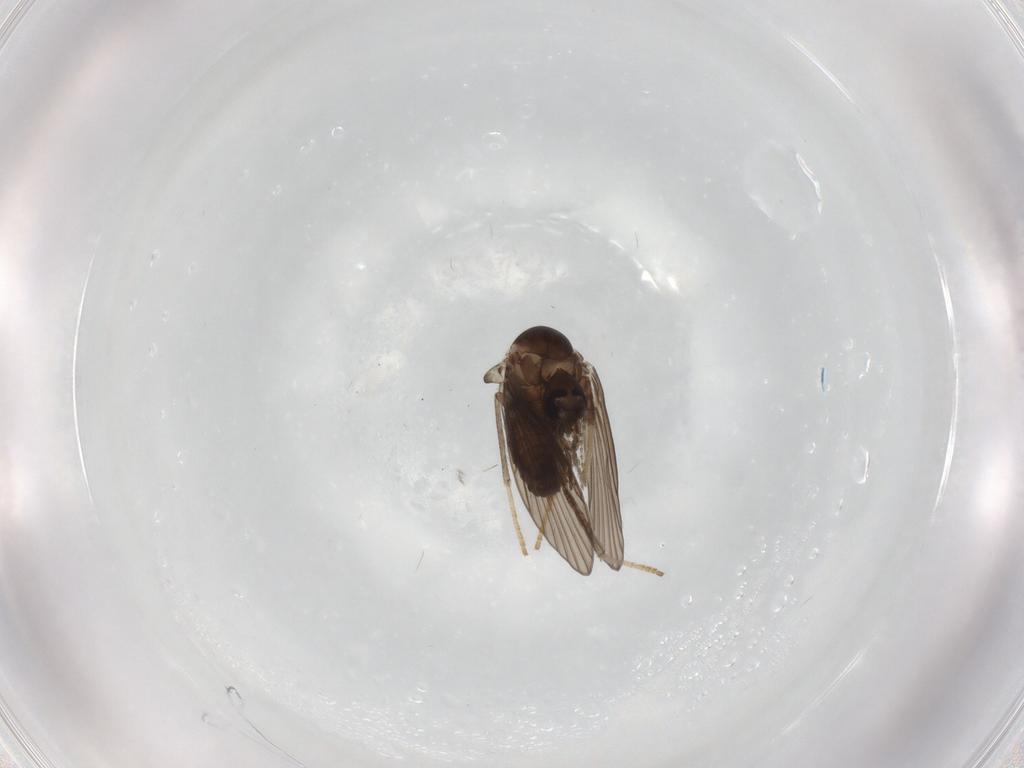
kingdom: Animalia
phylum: Arthropoda
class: Insecta
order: Diptera
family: Psychodidae
